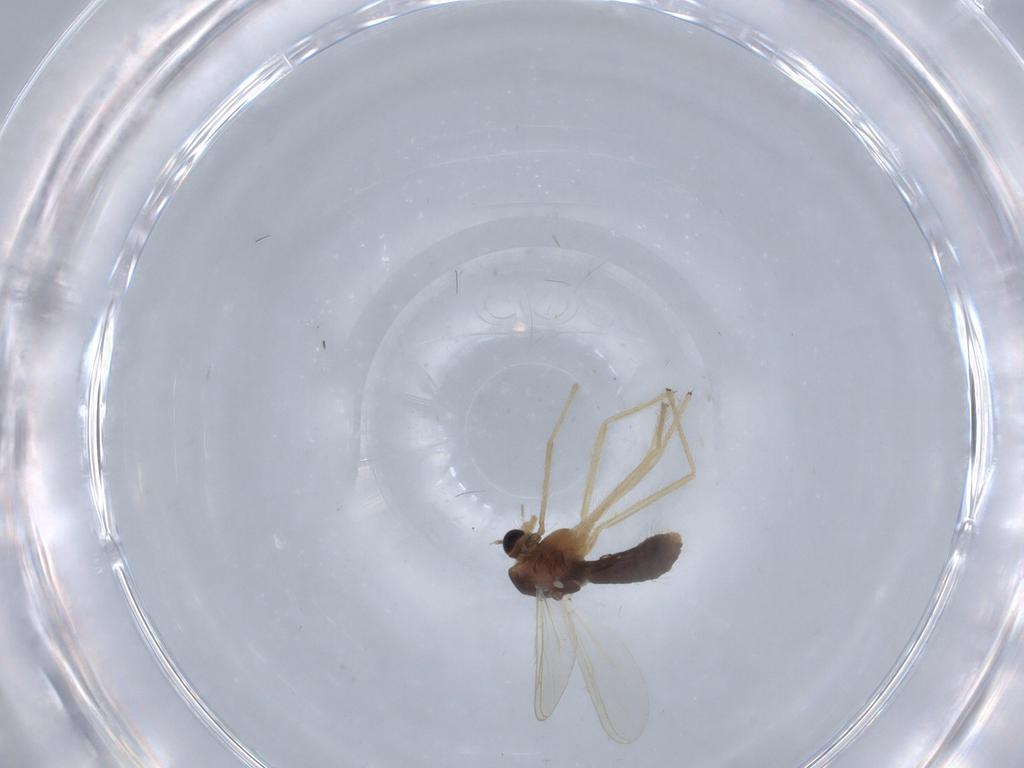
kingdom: Animalia
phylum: Arthropoda
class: Insecta
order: Diptera
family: Chironomidae
